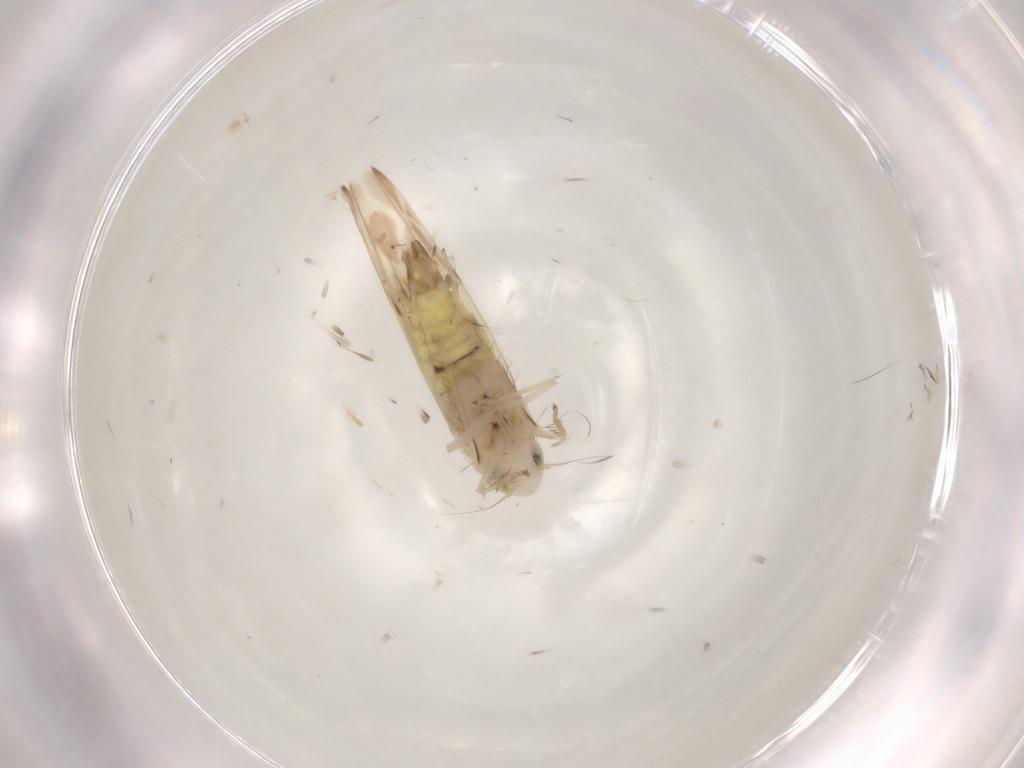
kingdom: Animalia
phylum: Arthropoda
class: Insecta
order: Hemiptera
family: Cicadellidae
